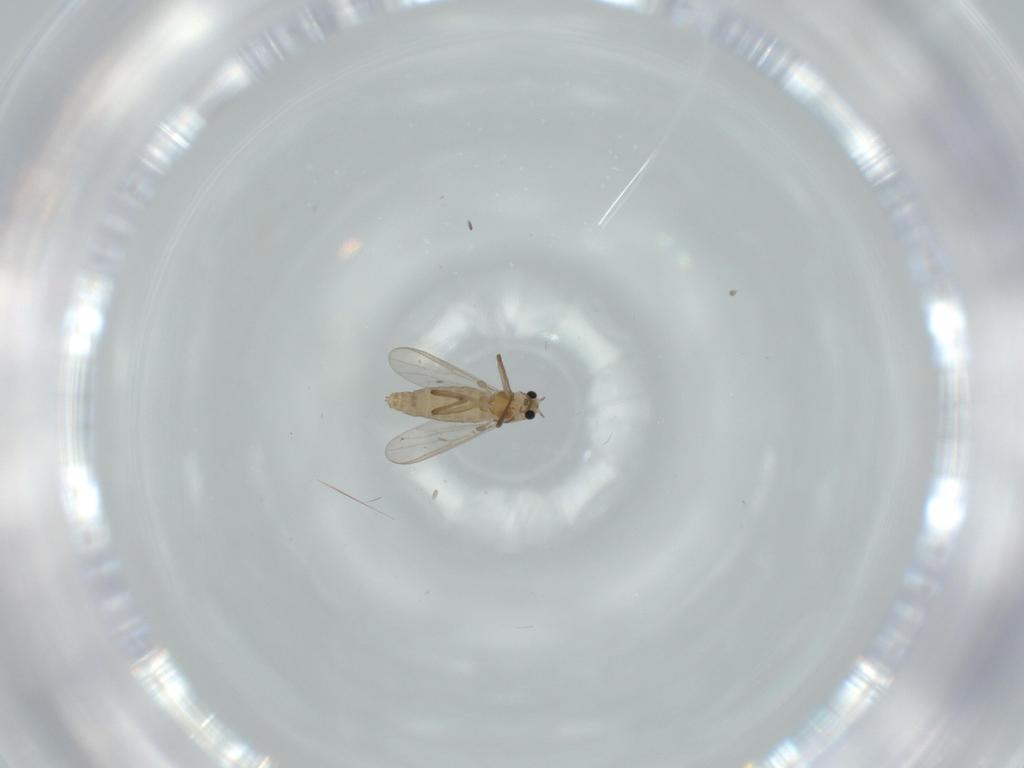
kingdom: Animalia
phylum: Arthropoda
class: Insecta
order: Diptera
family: Chironomidae
